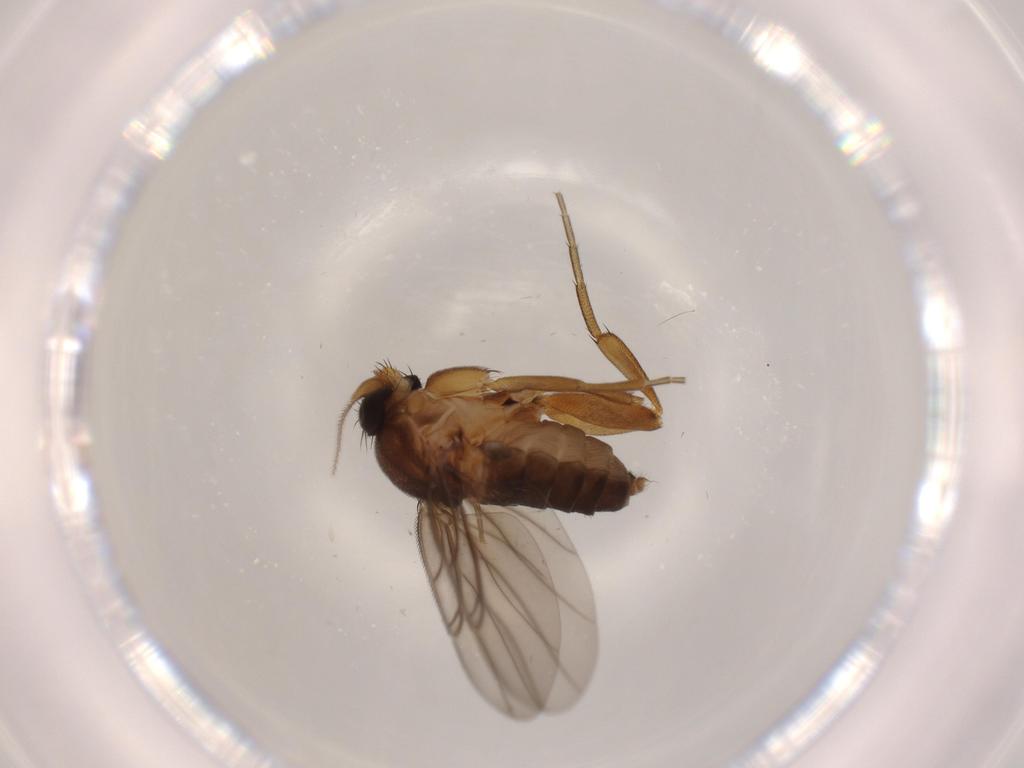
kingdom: Animalia
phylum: Arthropoda
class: Insecta
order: Diptera
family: Phoridae
